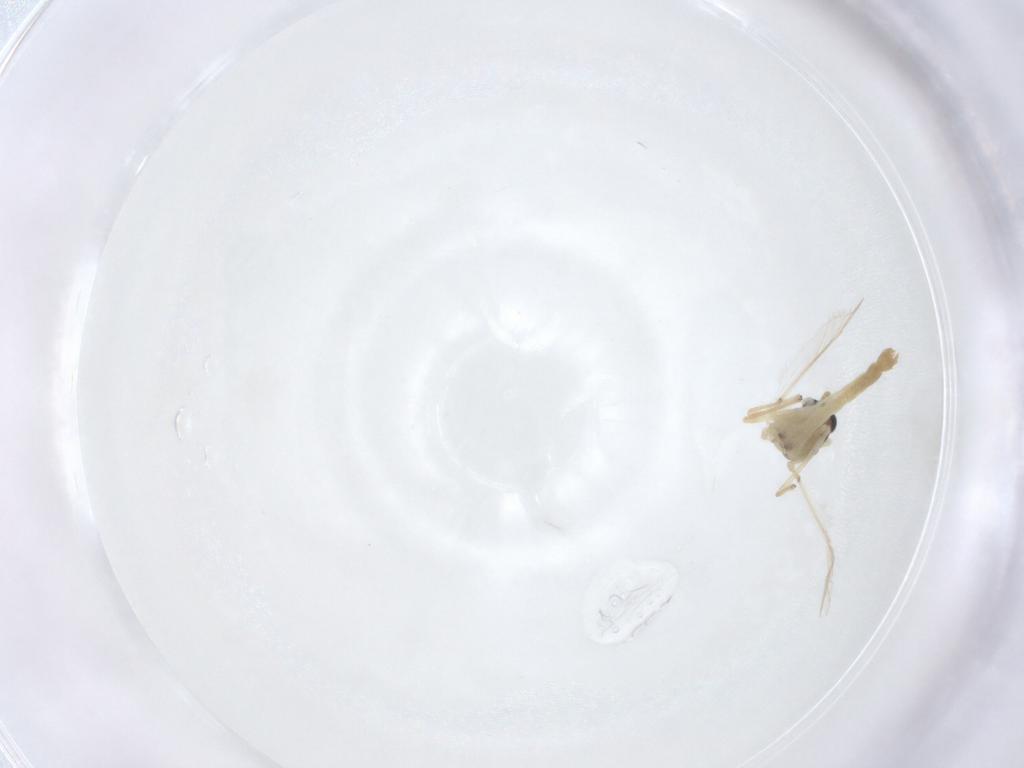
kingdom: Animalia
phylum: Arthropoda
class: Insecta
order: Diptera
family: Chironomidae
